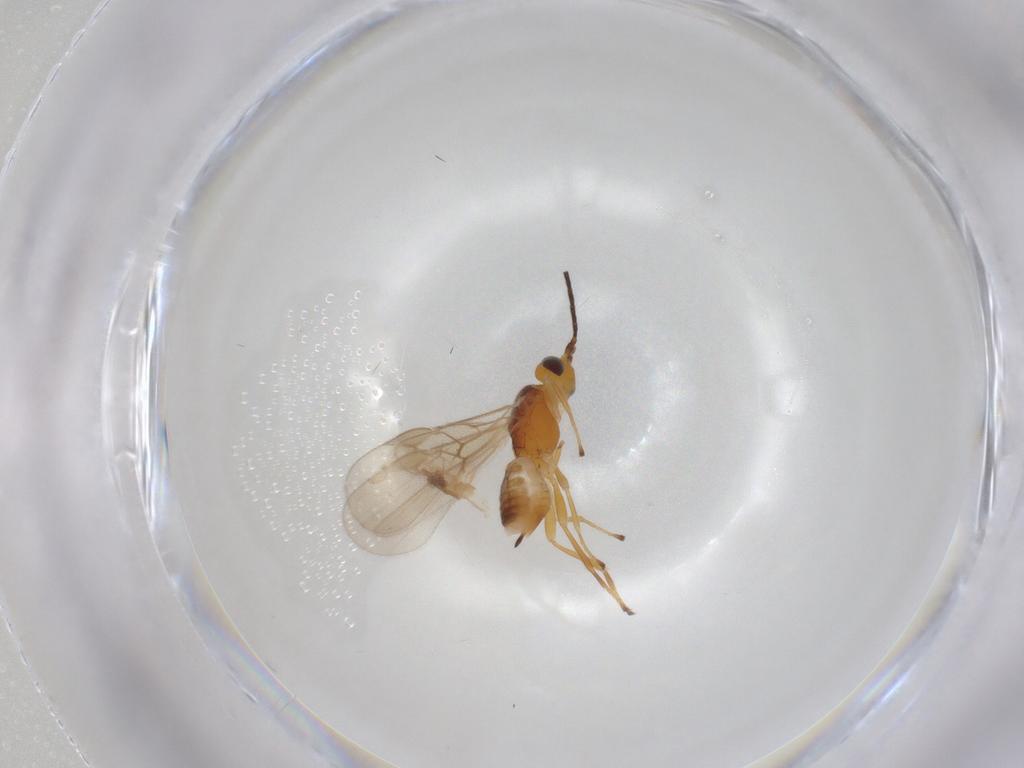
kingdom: Animalia
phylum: Arthropoda
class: Insecta
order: Hymenoptera
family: Braconidae
